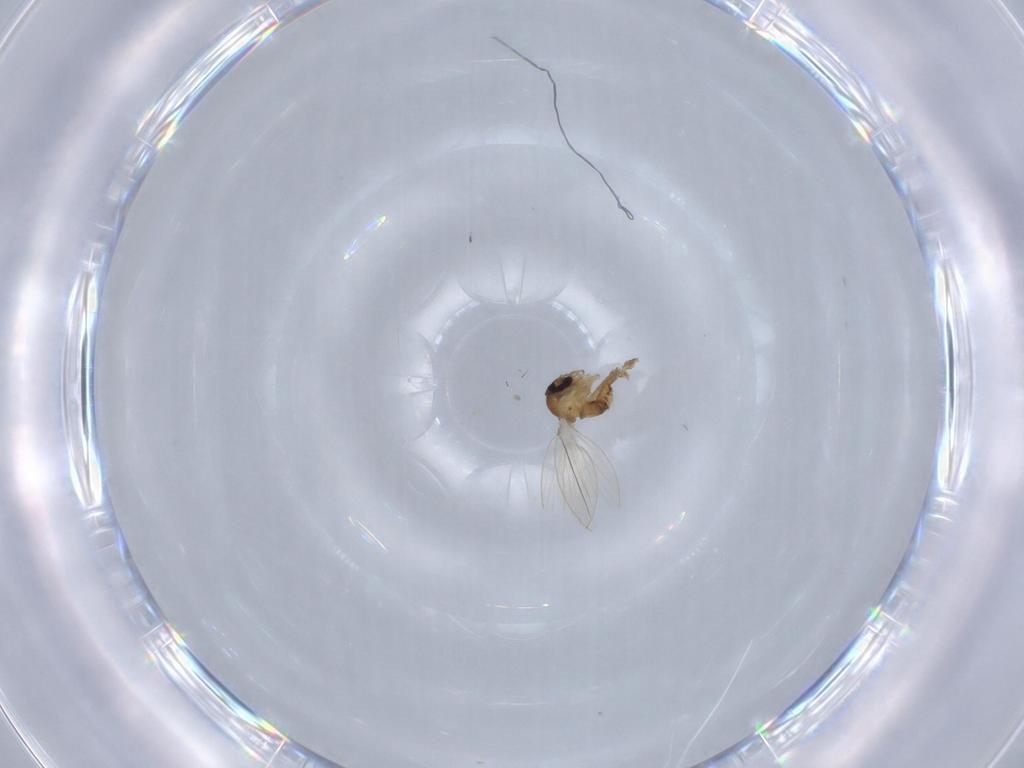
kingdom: Animalia
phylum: Arthropoda
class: Insecta
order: Diptera
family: Psychodidae
